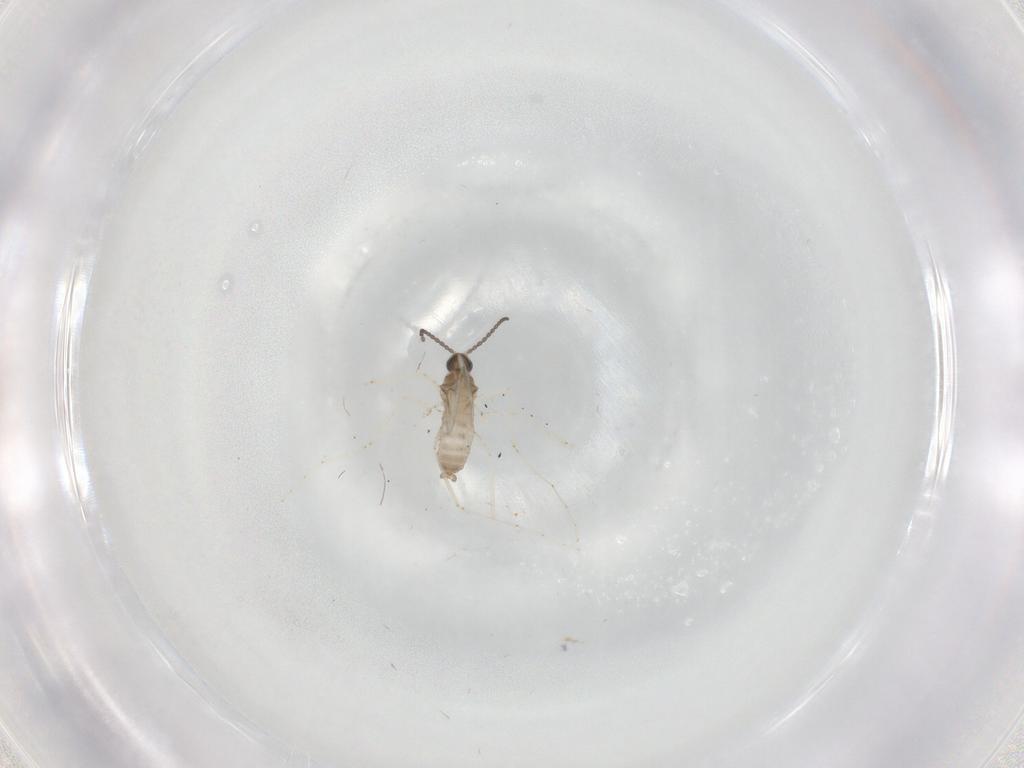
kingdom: Animalia
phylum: Arthropoda
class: Insecta
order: Diptera
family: Cecidomyiidae
